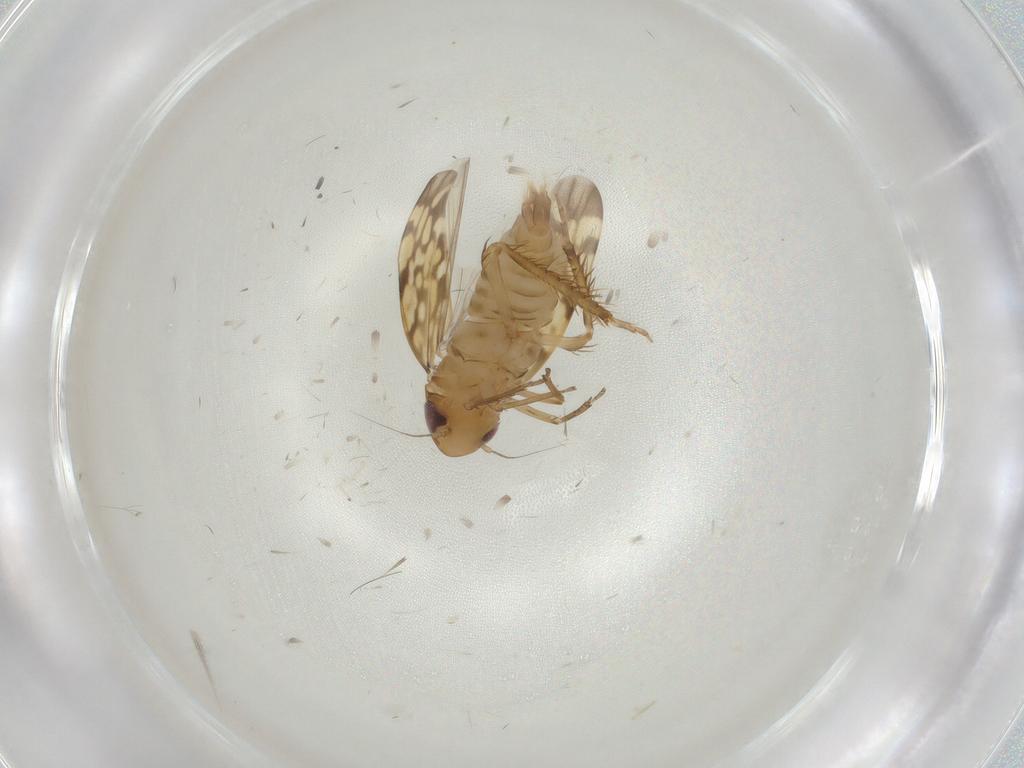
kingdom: Animalia
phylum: Arthropoda
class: Insecta
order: Hemiptera
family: Cicadellidae
